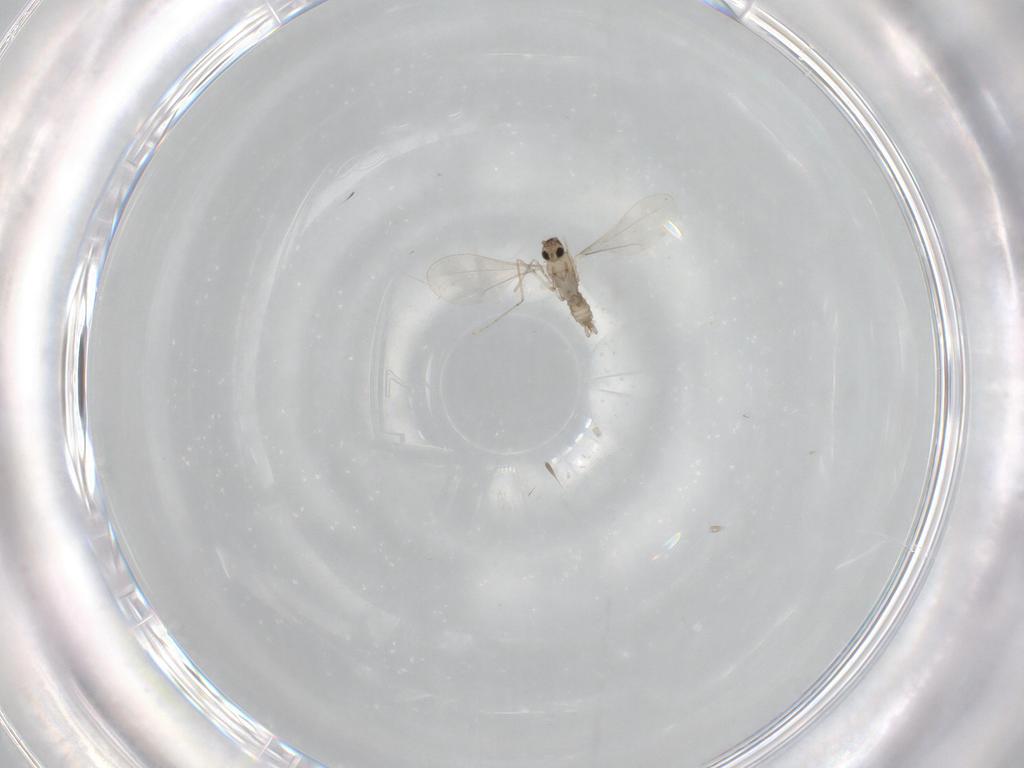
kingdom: Animalia
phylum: Arthropoda
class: Insecta
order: Diptera
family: Cecidomyiidae
